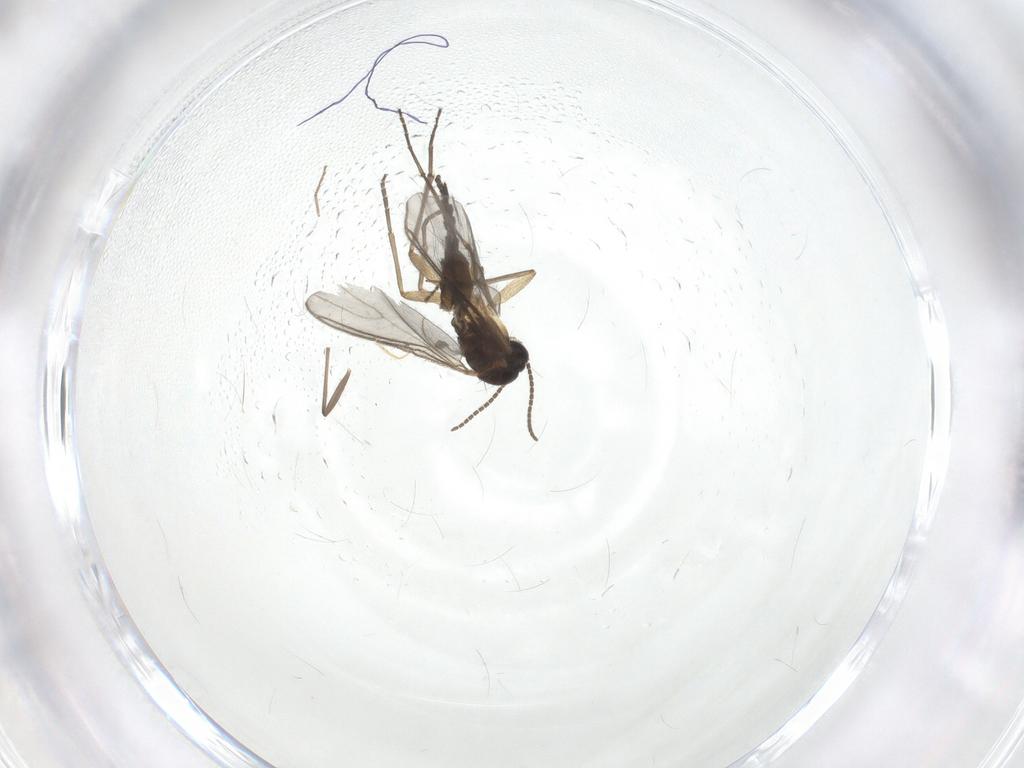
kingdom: Animalia
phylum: Arthropoda
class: Insecta
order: Diptera
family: Sciaridae
